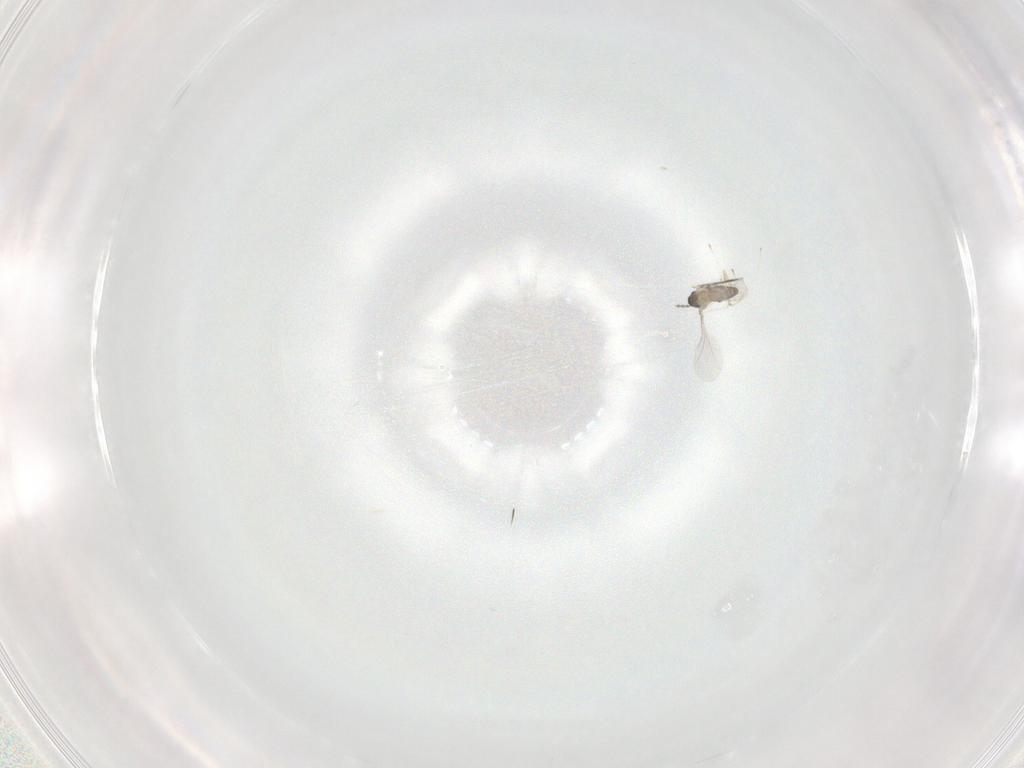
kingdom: Animalia
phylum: Arthropoda
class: Insecta
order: Diptera
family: Cecidomyiidae
